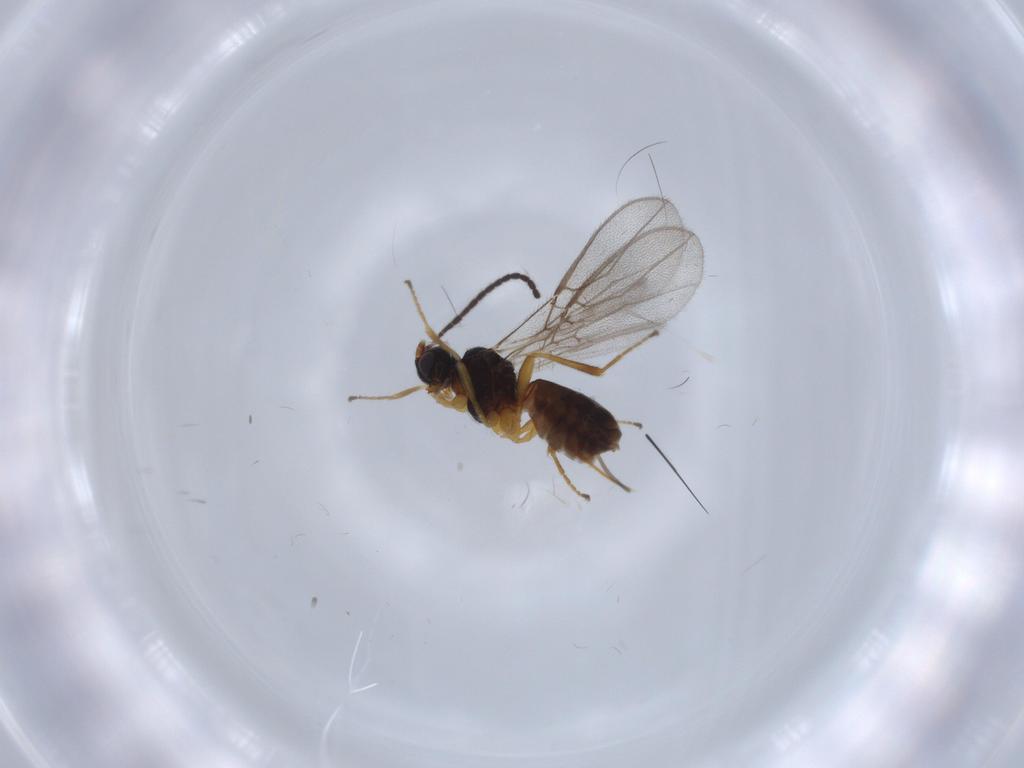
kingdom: Animalia
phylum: Arthropoda
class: Insecta
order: Hymenoptera
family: Braconidae
